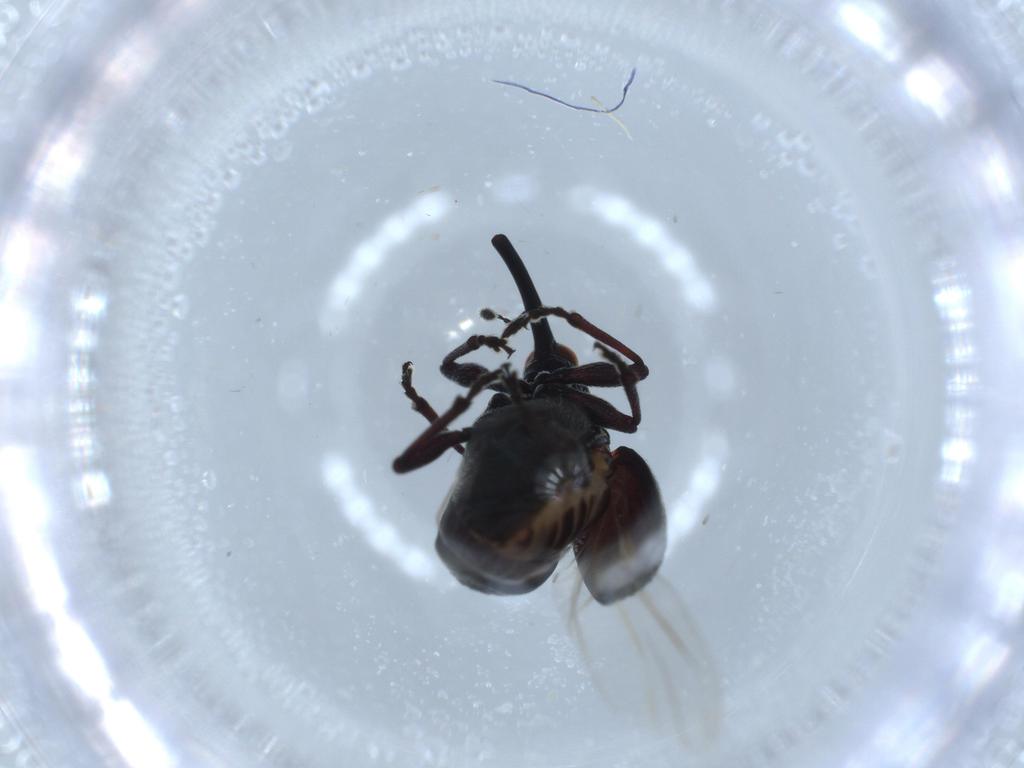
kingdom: Animalia
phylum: Arthropoda
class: Insecta
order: Coleoptera
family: Brentidae
